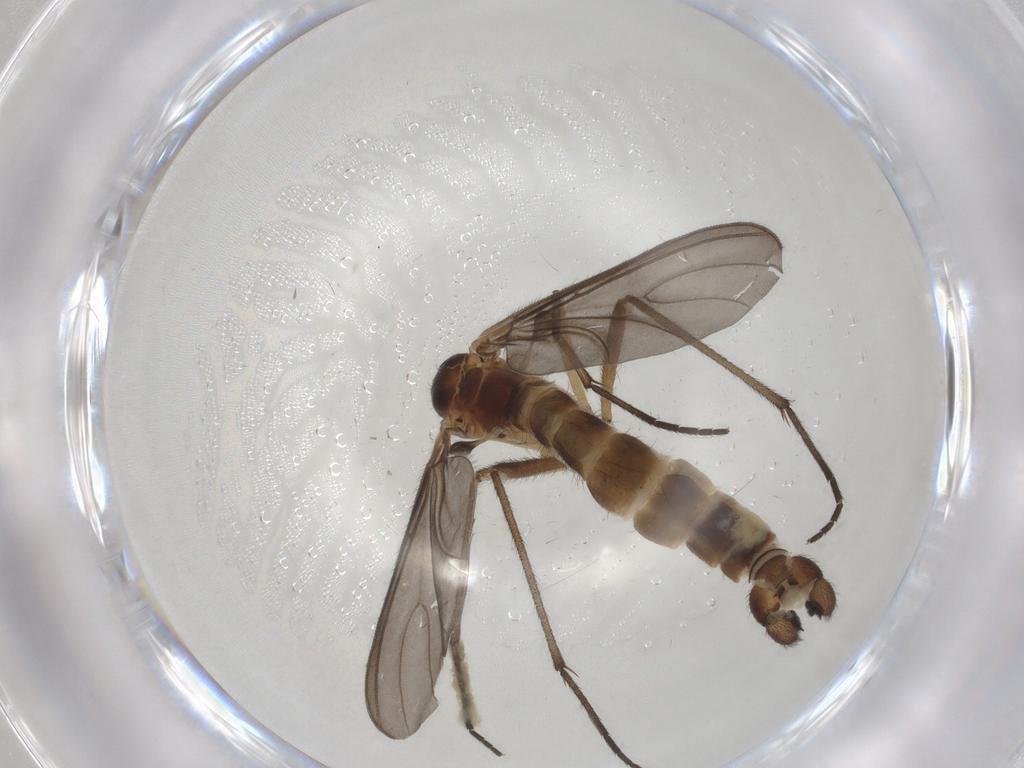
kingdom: Animalia
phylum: Arthropoda
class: Insecta
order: Diptera
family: Sciaridae
